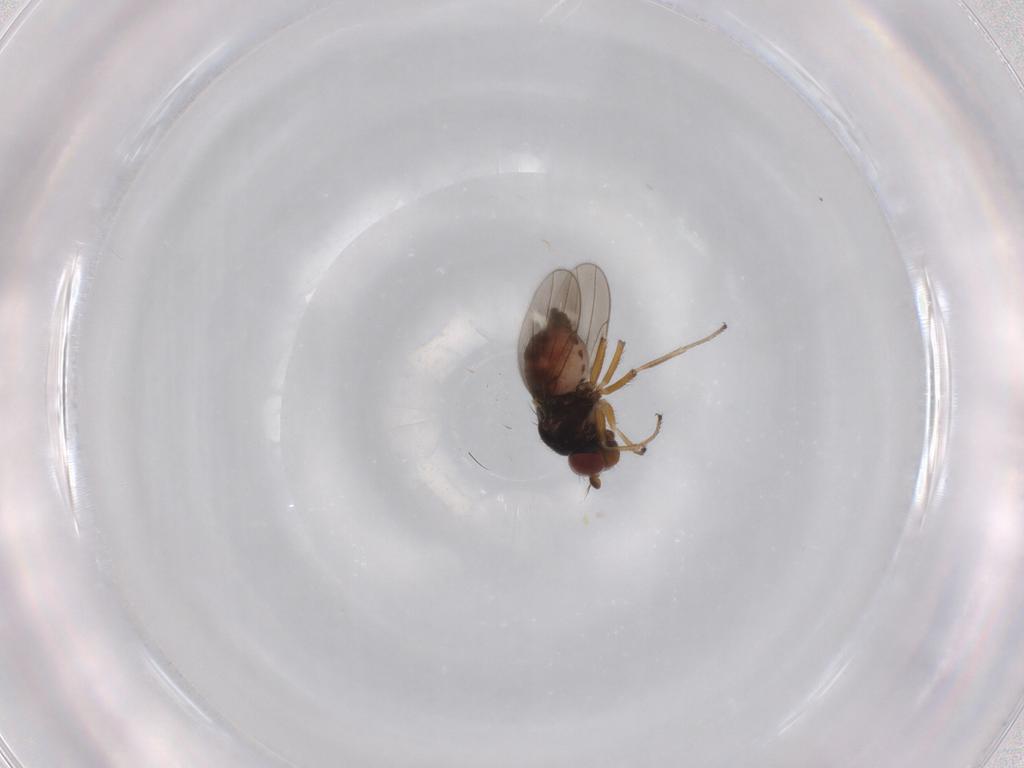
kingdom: Animalia
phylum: Arthropoda
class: Insecta
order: Diptera
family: Ephydridae
